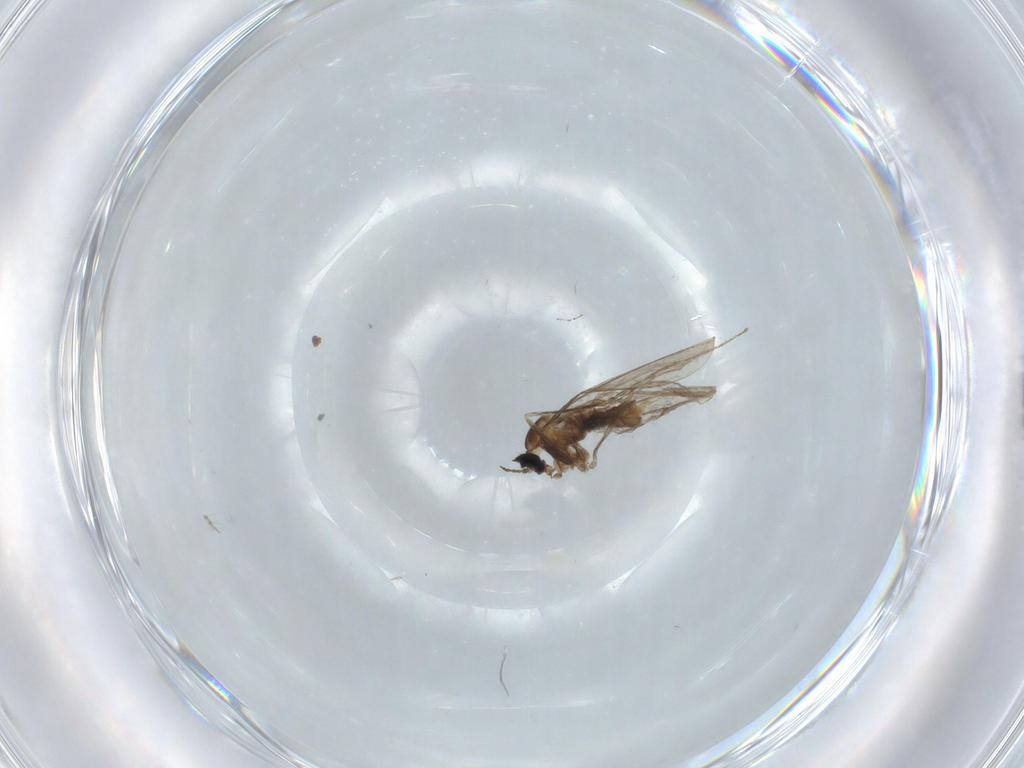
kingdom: Animalia
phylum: Arthropoda
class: Insecta
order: Diptera
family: Cecidomyiidae
